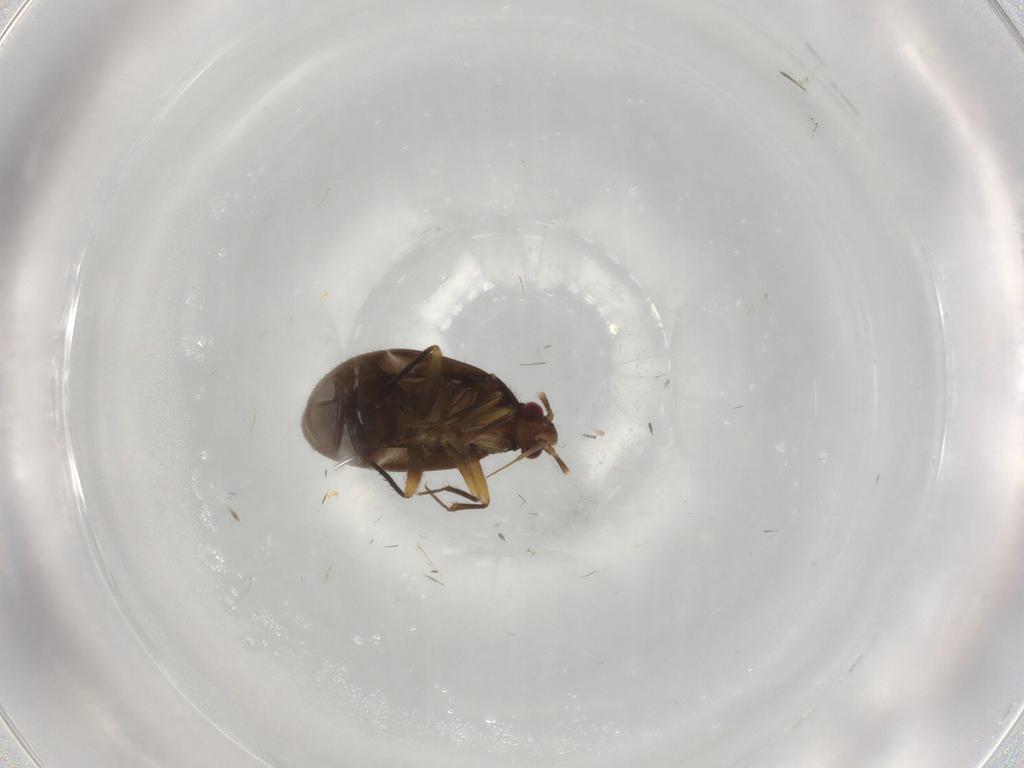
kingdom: Animalia
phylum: Arthropoda
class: Insecta
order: Hemiptera
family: Ceratocombidae
